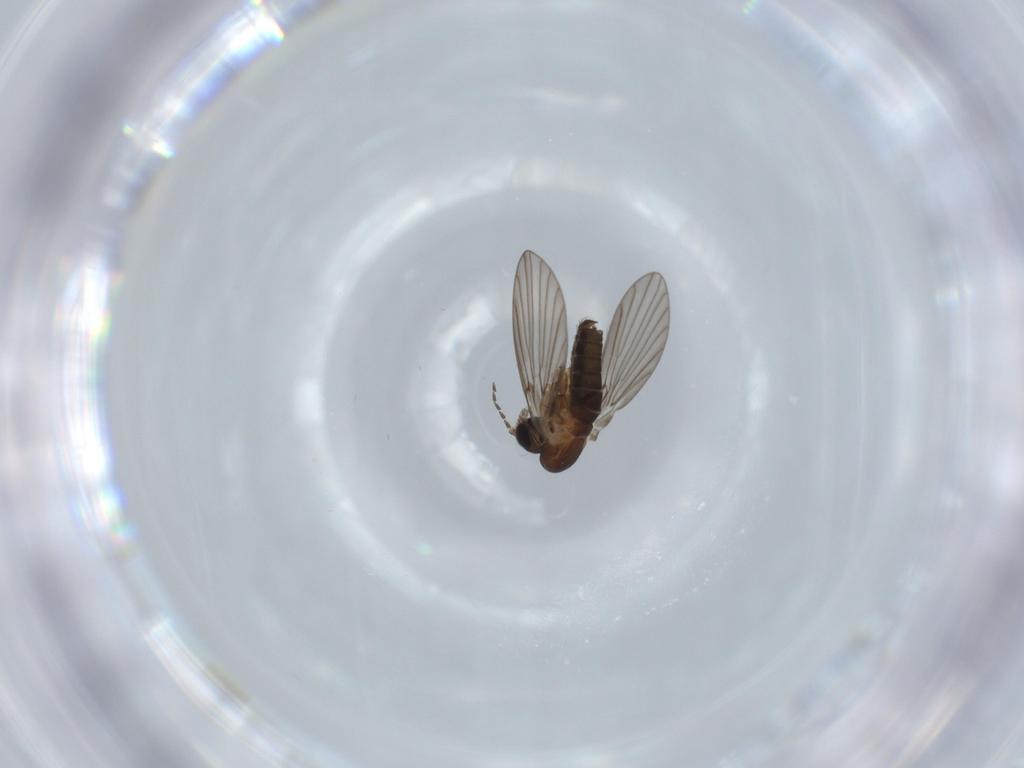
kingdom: Animalia
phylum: Arthropoda
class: Insecta
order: Diptera
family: Psychodidae
